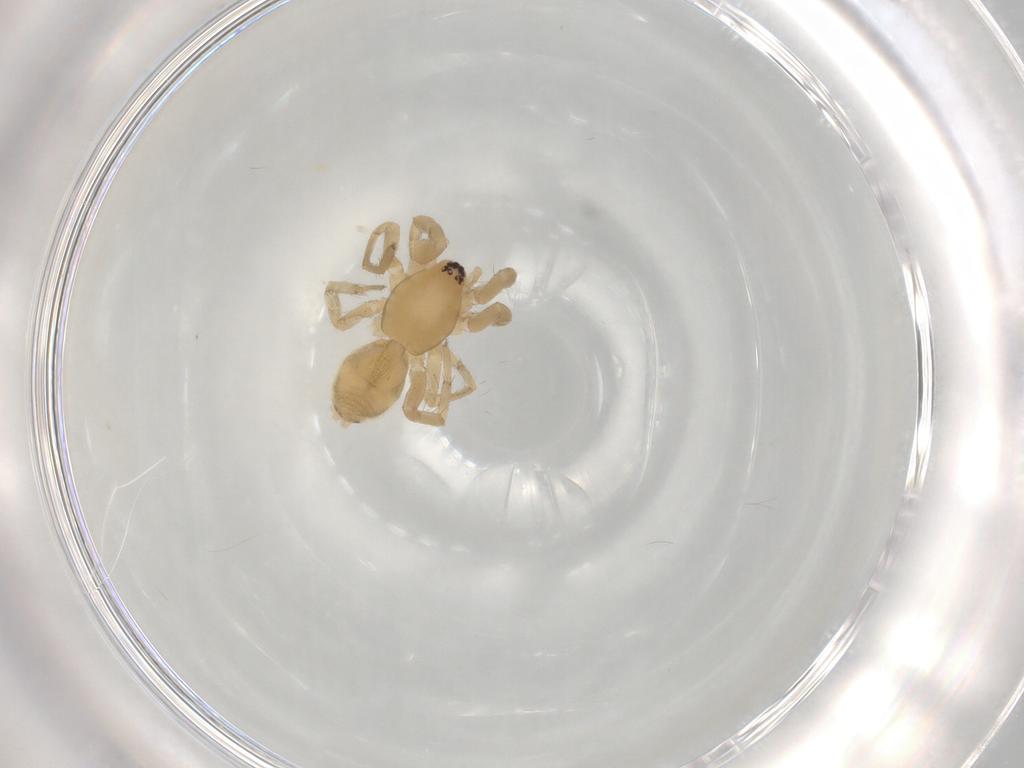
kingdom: Animalia
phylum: Arthropoda
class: Arachnida
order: Araneae
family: Gnaphosidae
